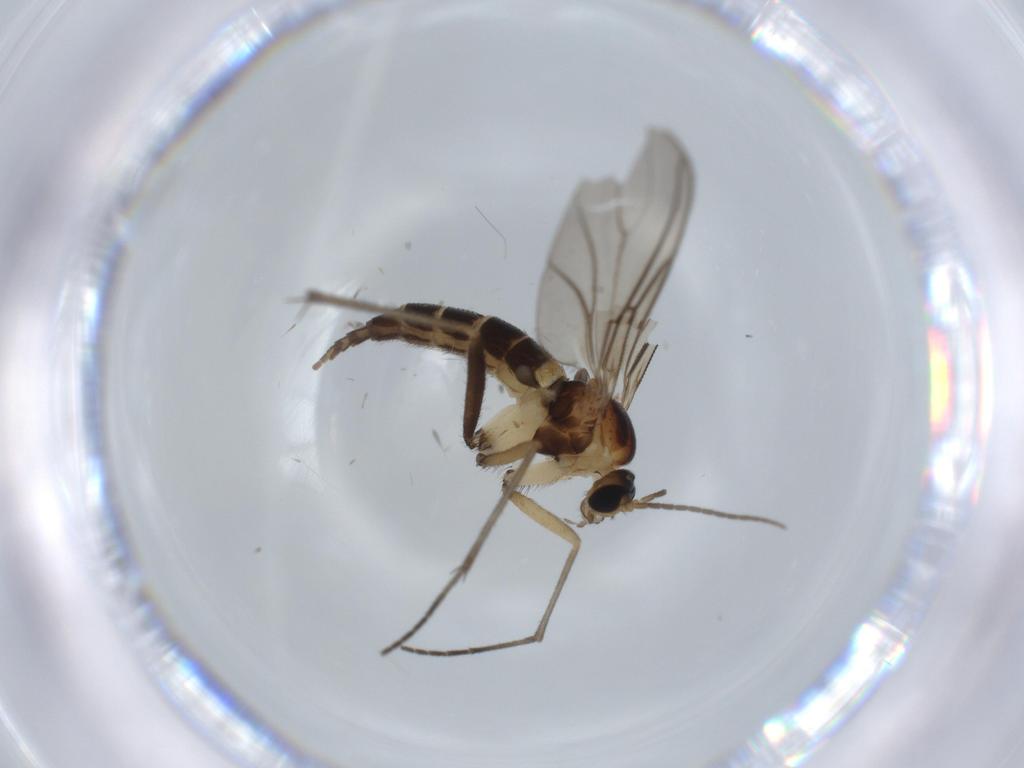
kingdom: Animalia
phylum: Arthropoda
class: Insecta
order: Diptera
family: Sciaridae
